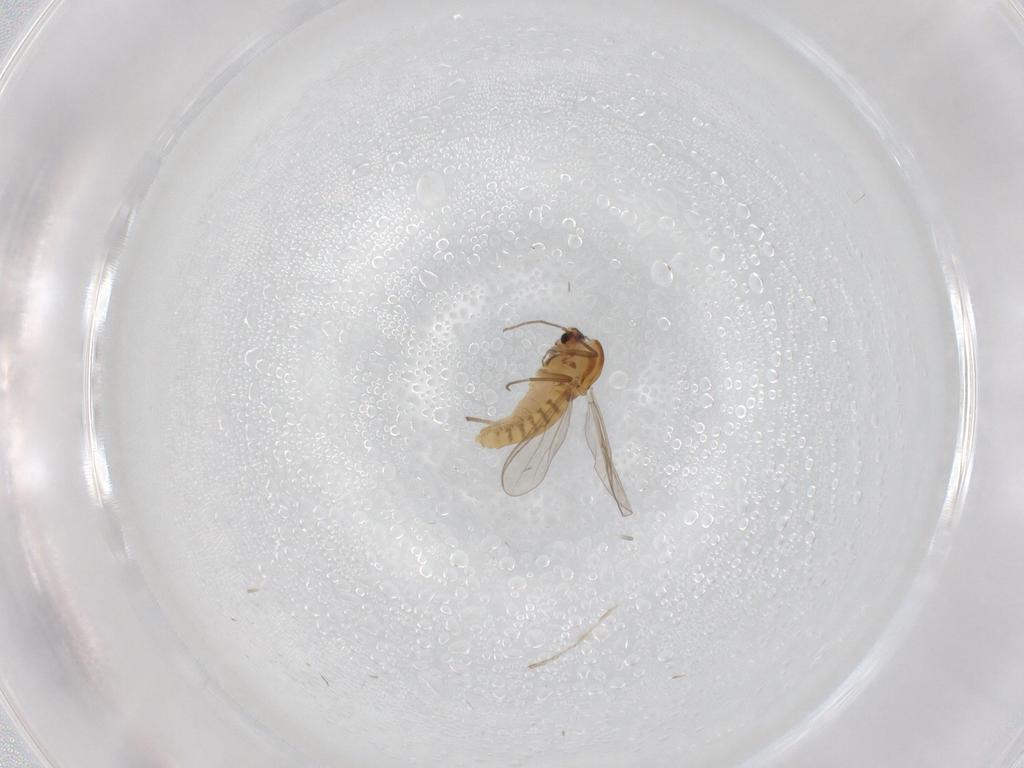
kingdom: Animalia
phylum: Arthropoda
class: Insecta
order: Diptera
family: Chironomidae
